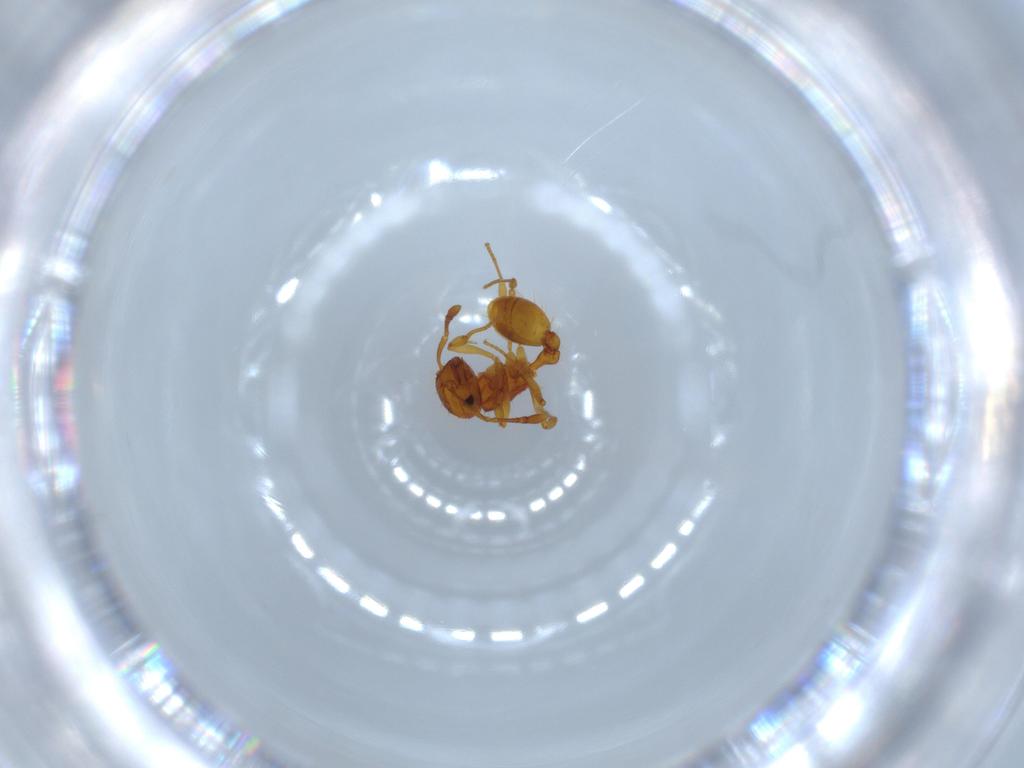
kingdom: Animalia
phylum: Arthropoda
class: Insecta
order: Hymenoptera
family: Formicidae
